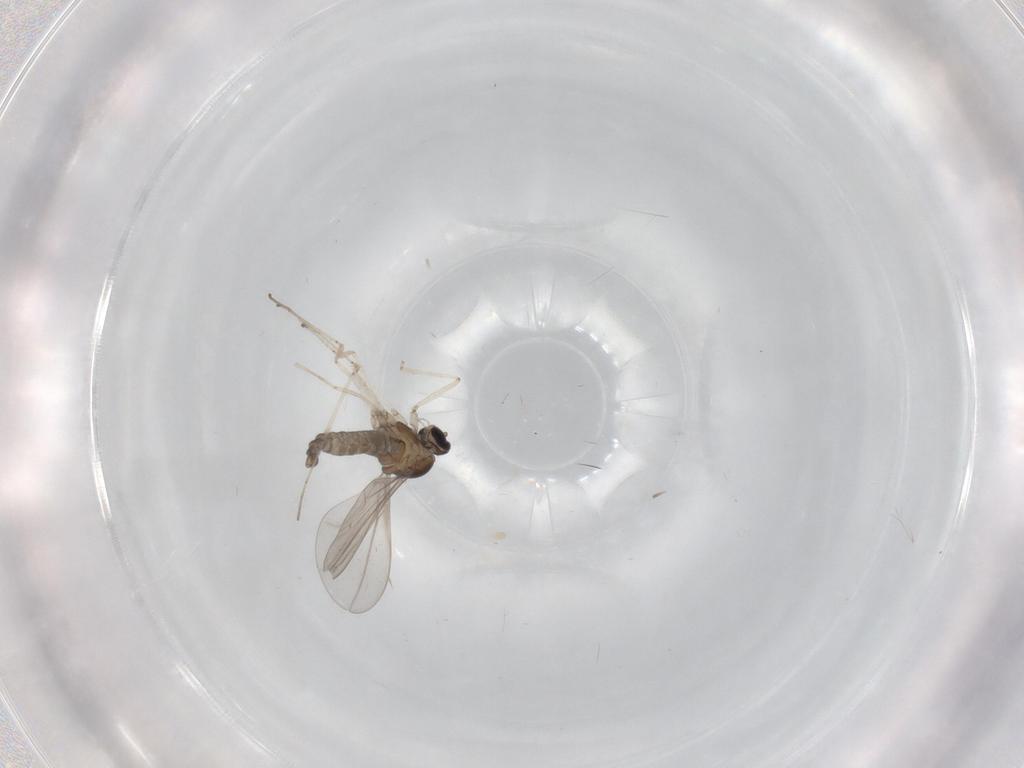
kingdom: Animalia
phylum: Arthropoda
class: Insecta
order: Diptera
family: Cecidomyiidae
